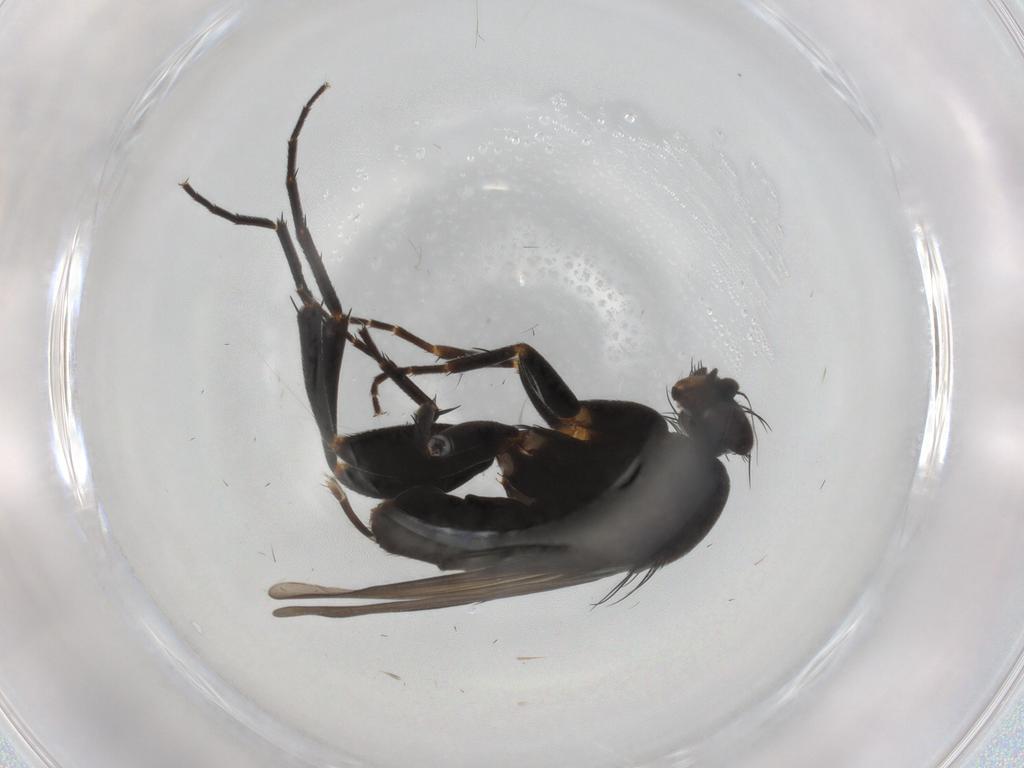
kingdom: Animalia
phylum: Arthropoda
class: Insecta
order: Diptera
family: Phoridae
